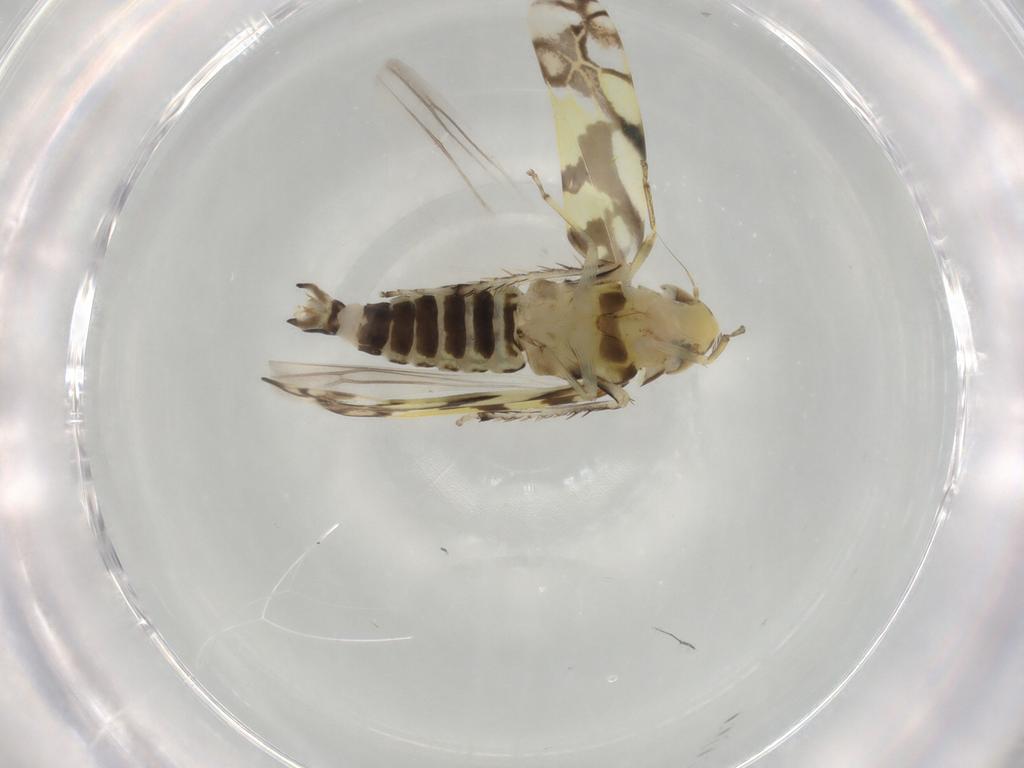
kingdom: Animalia
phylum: Arthropoda
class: Insecta
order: Hemiptera
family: Cicadellidae
